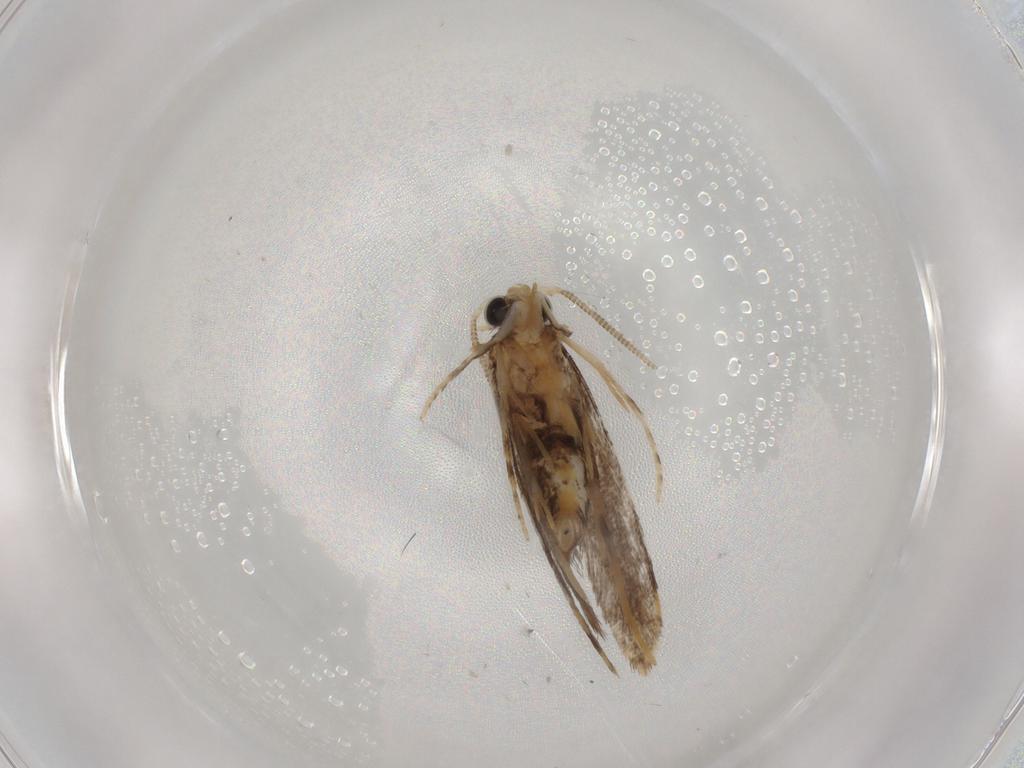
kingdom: Animalia
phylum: Arthropoda
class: Insecta
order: Lepidoptera
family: Tineidae
